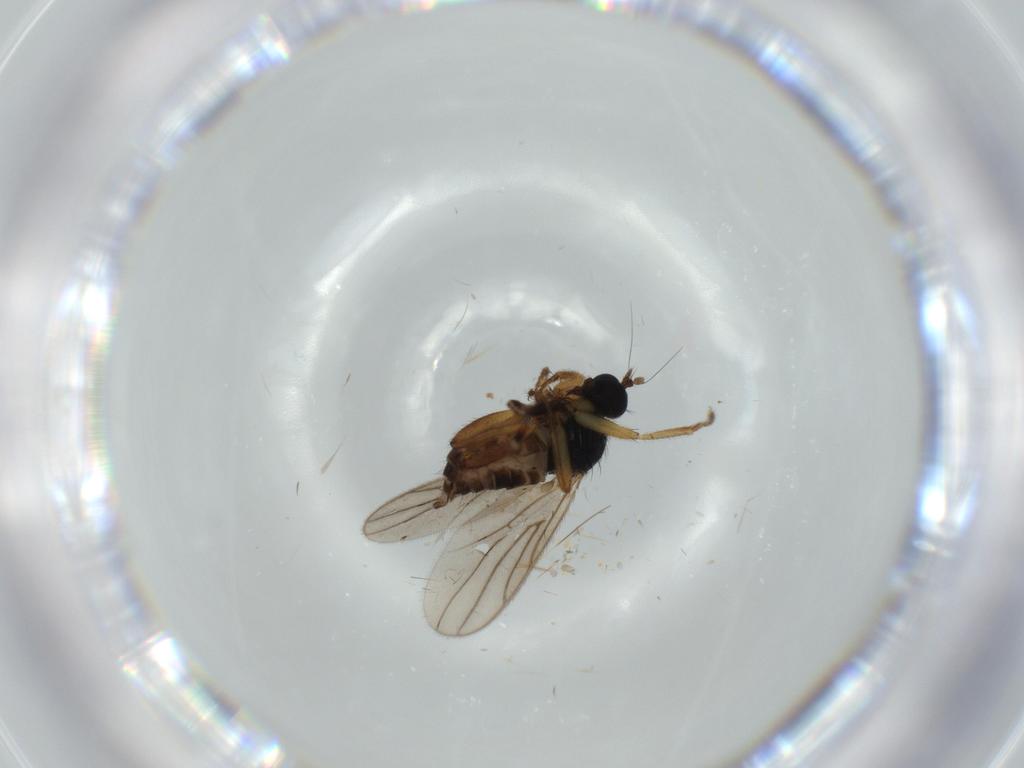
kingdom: Animalia
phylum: Arthropoda
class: Insecta
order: Diptera
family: Hybotidae
